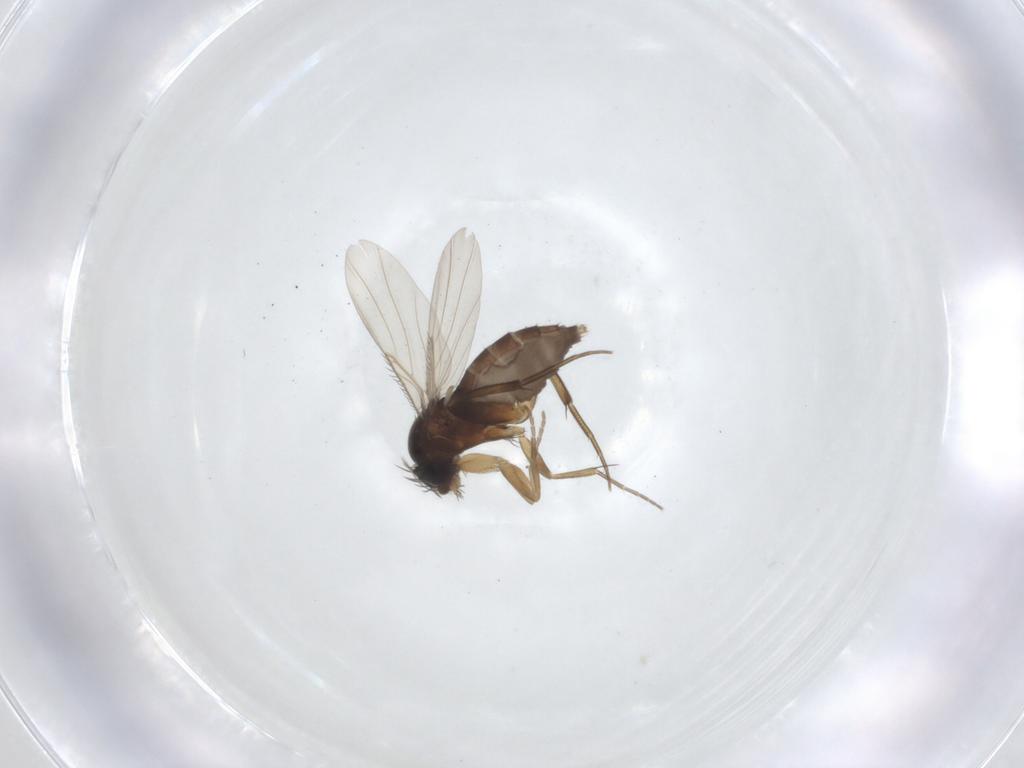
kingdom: Animalia
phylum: Arthropoda
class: Insecta
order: Diptera
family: Phoridae
